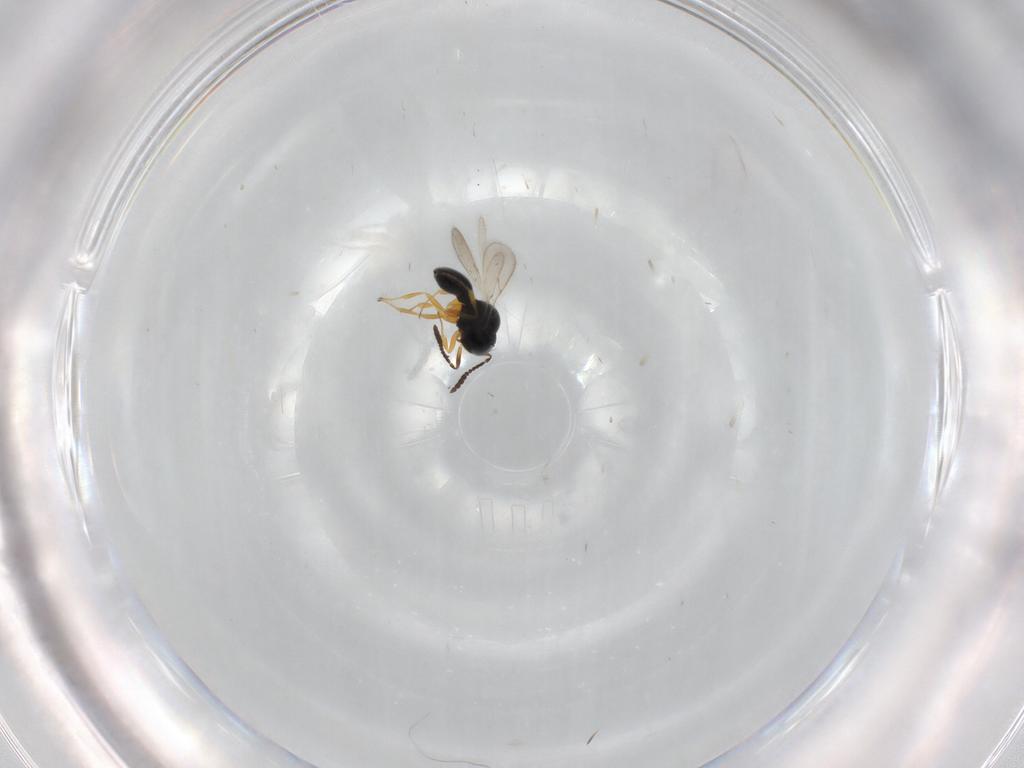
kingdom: Animalia
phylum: Arthropoda
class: Insecta
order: Hymenoptera
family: Scelionidae
